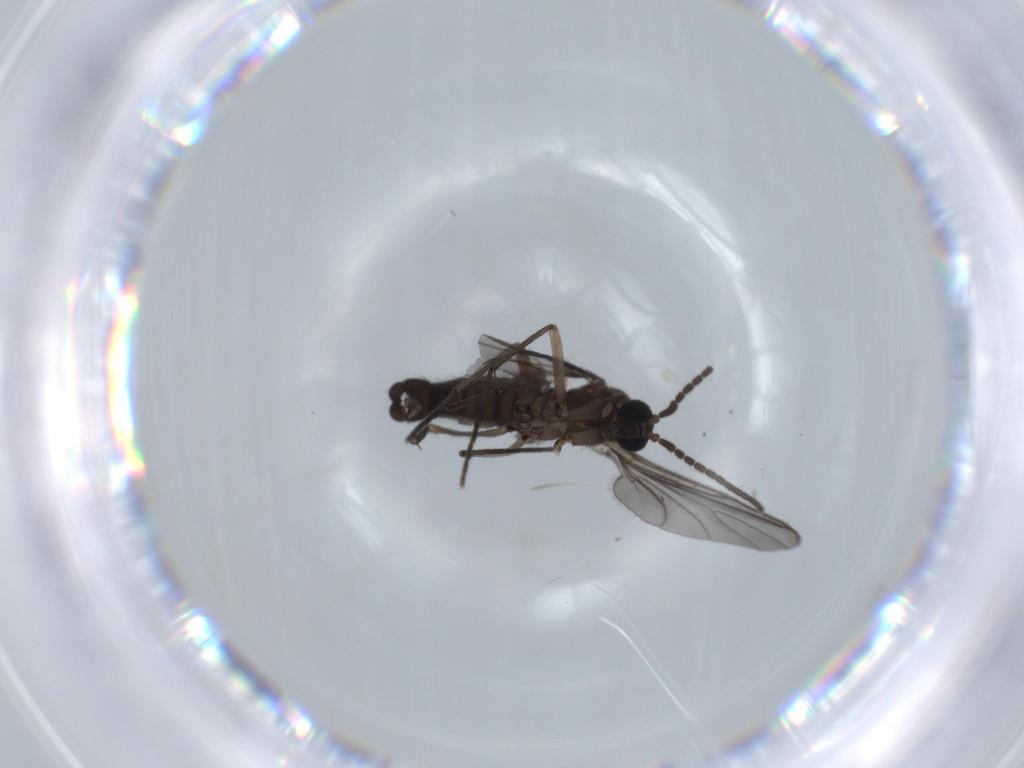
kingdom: Animalia
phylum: Arthropoda
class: Insecta
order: Diptera
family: Sciaridae
